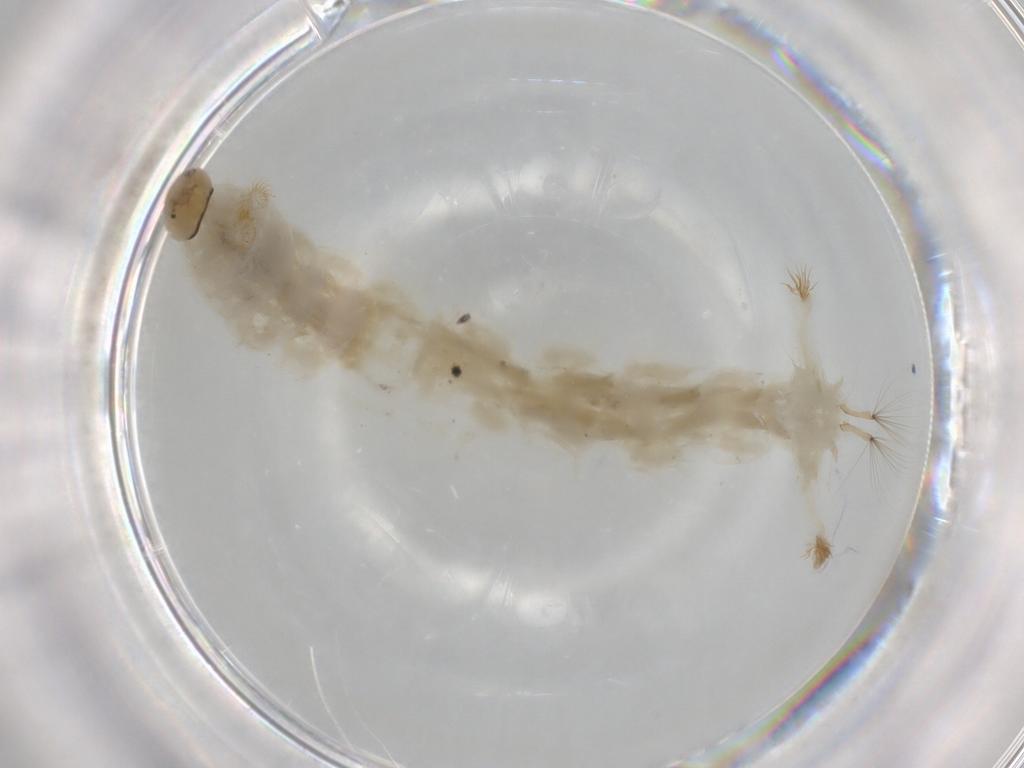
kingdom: Animalia
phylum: Arthropoda
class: Insecta
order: Diptera
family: Chironomidae
